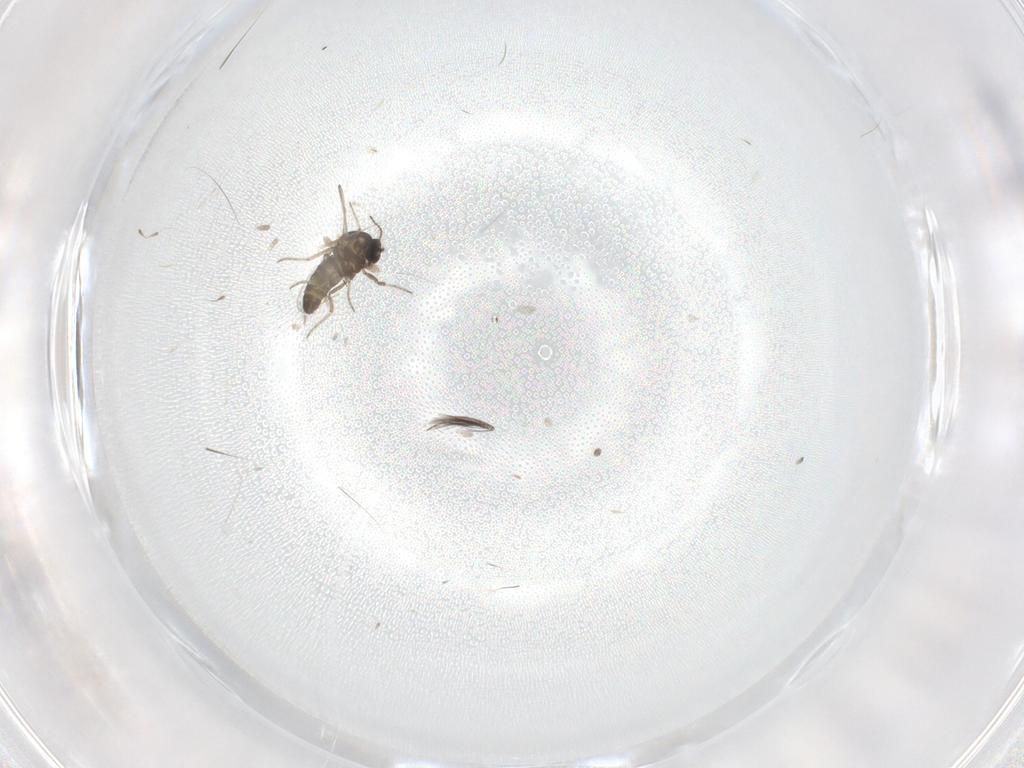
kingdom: Animalia
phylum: Arthropoda
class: Insecta
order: Diptera
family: Ceratopogonidae
